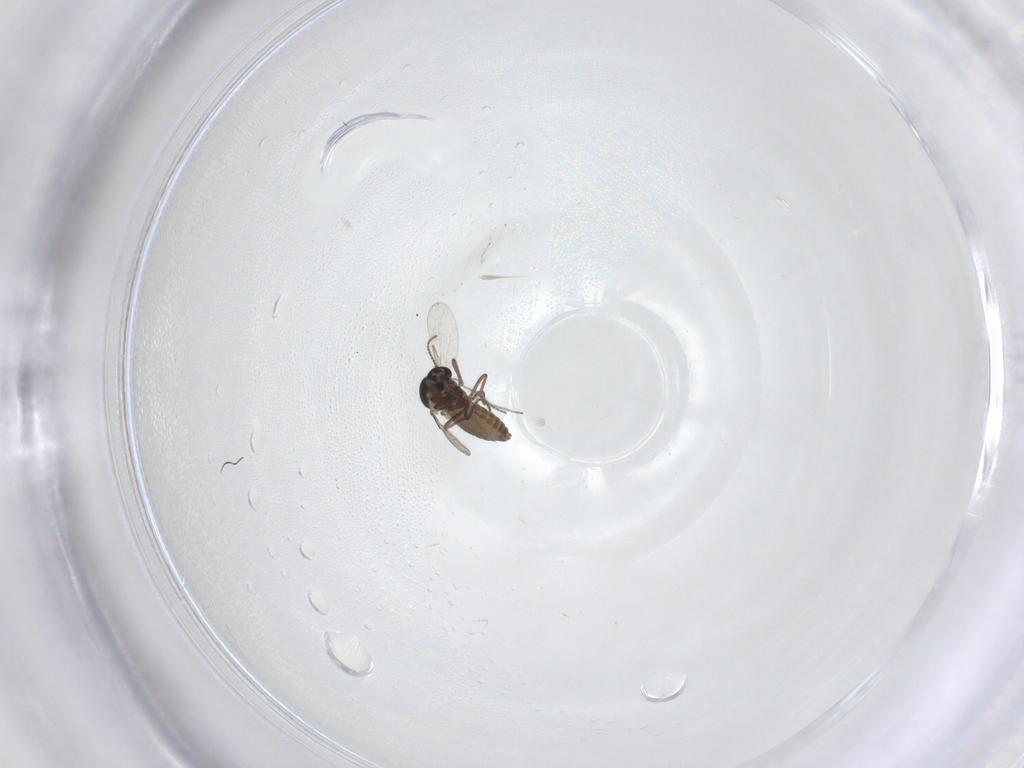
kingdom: Animalia
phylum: Arthropoda
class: Insecta
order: Diptera
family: Ceratopogonidae
